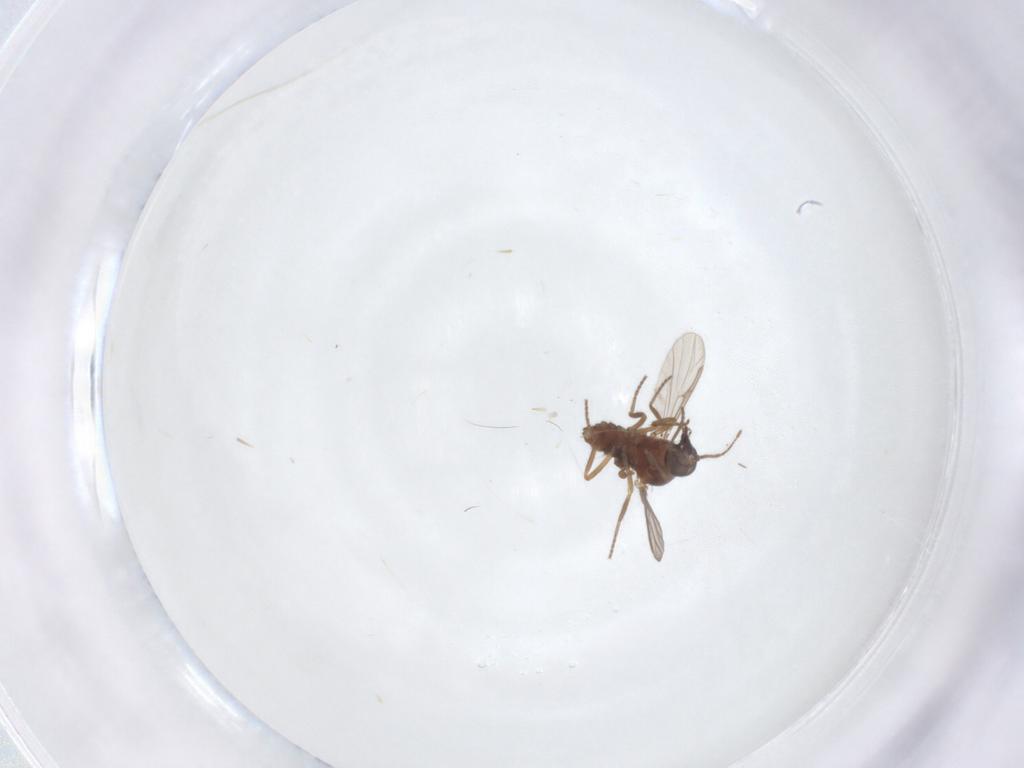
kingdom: Animalia
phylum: Arthropoda
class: Insecta
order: Diptera
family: Ceratopogonidae
